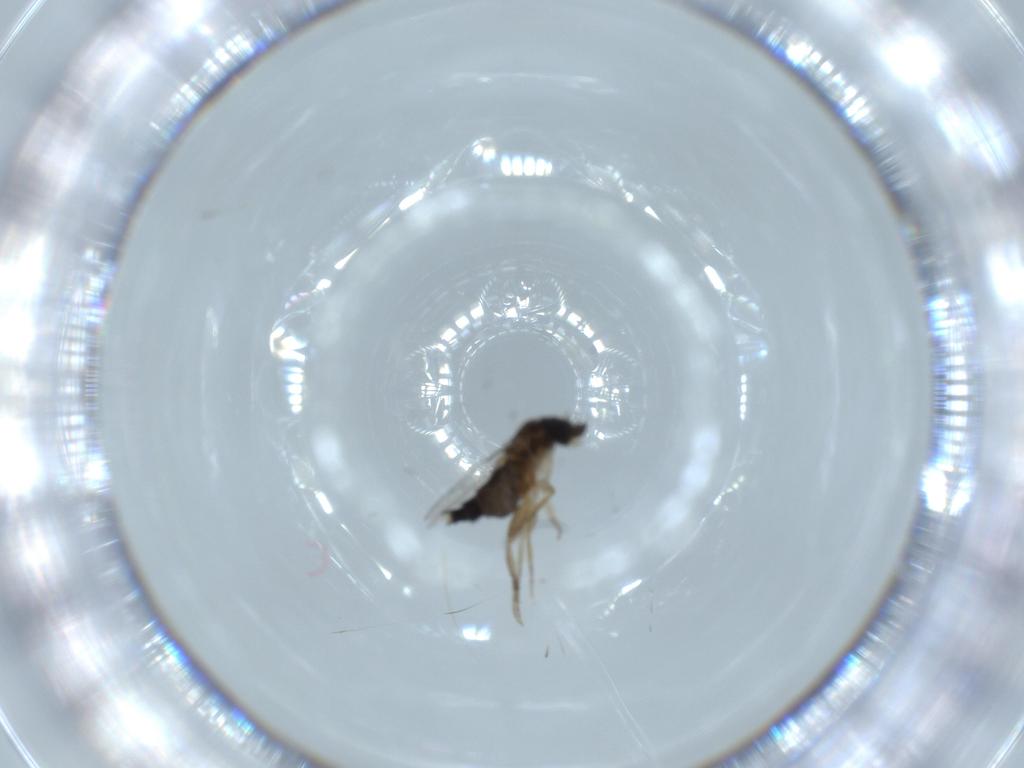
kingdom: Animalia
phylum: Arthropoda
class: Insecta
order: Diptera
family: Phoridae
